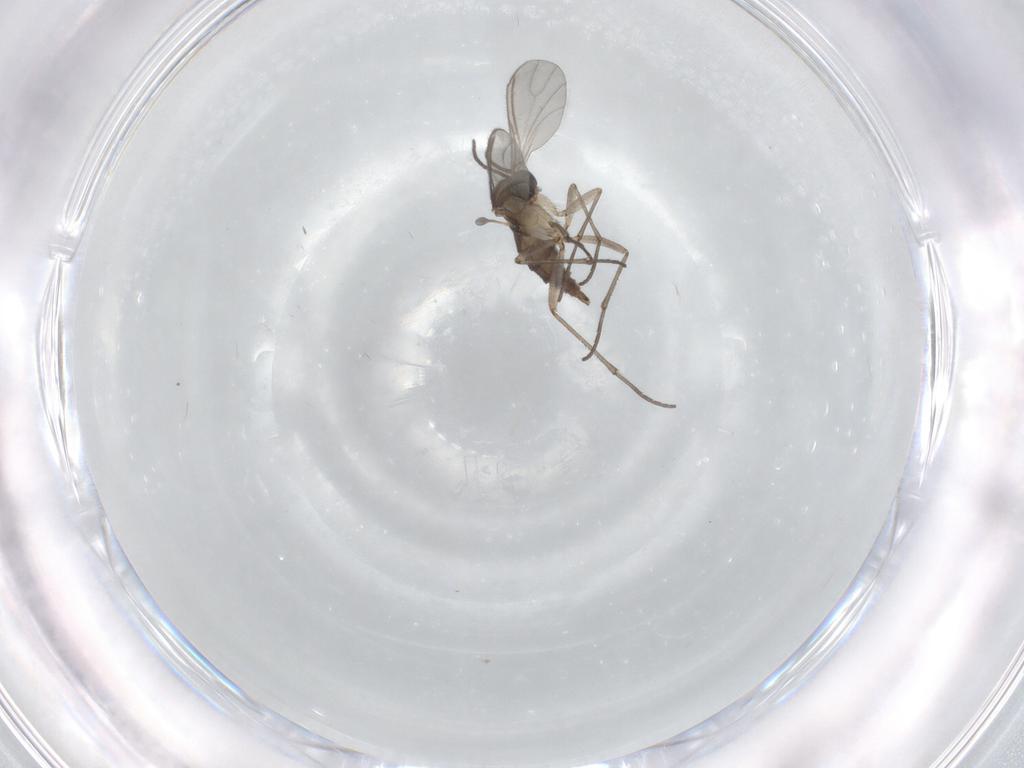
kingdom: Animalia
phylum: Arthropoda
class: Insecta
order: Diptera
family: Sciaridae
